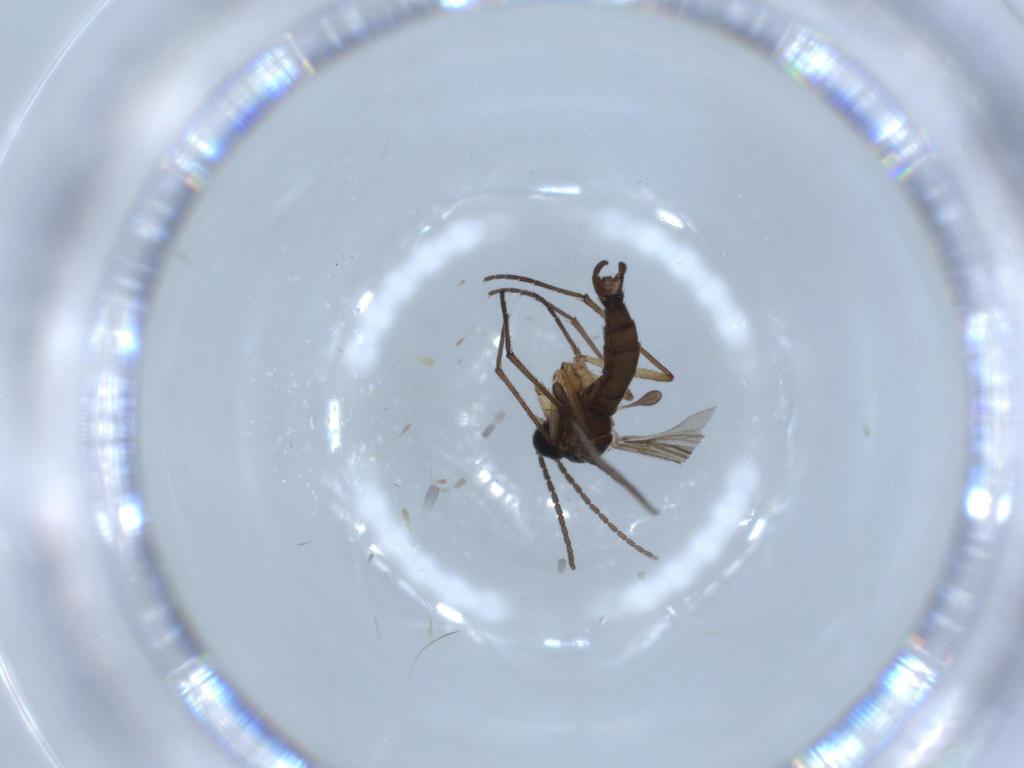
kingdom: Animalia
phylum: Arthropoda
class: Insecta
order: Diptera
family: Sciaridae
